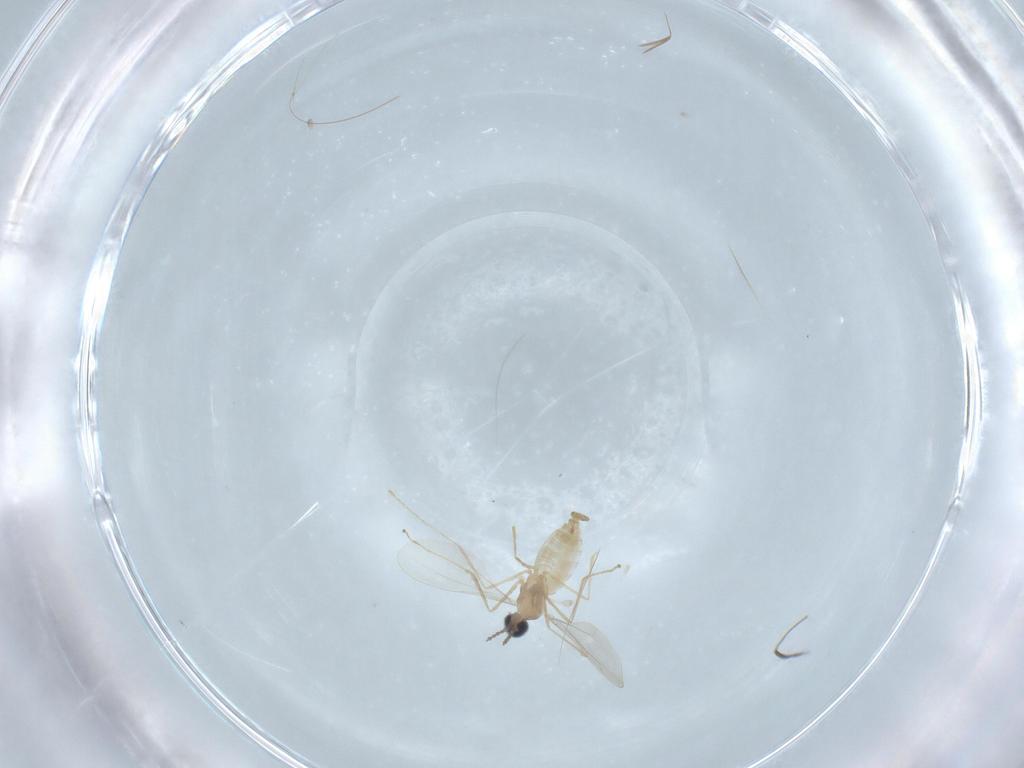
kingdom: Animalia
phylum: Arthropoda
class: Insecta
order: Diptera
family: Cecidomyiidae
